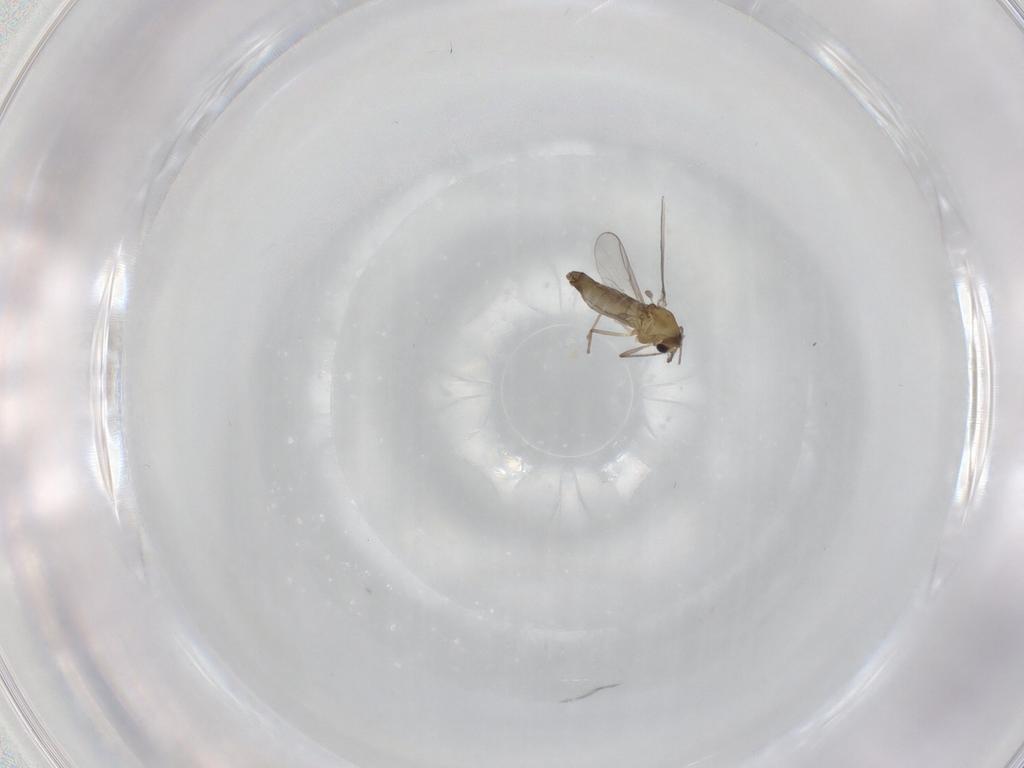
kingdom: Animalia
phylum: Arthropoda
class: Insecta
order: Diptera
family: Chironomidae
